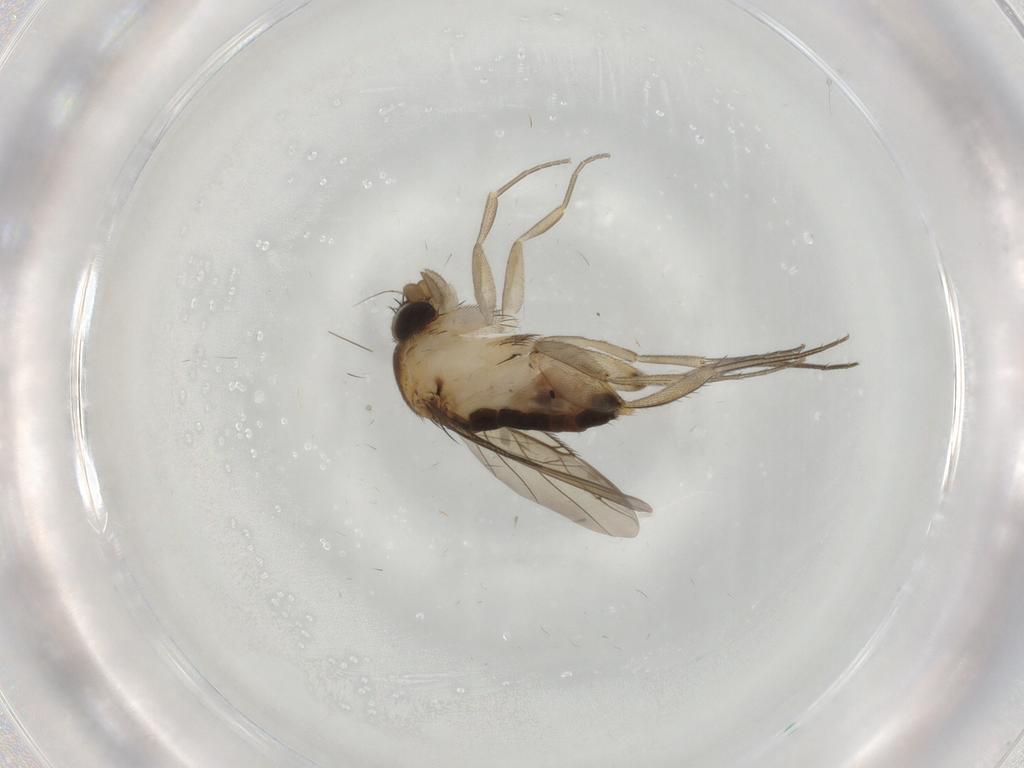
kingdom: Animalia
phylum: Arthropoda
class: Insecta
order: Diptera
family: Phoridae
